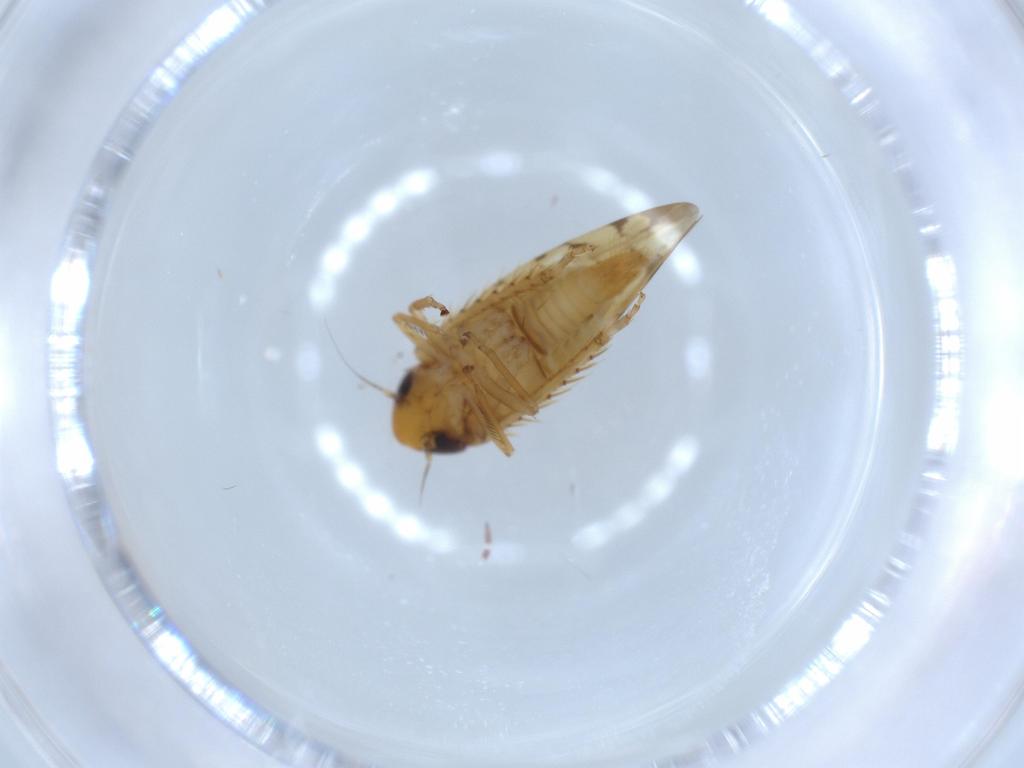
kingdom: Animalia
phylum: Arthropoda
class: Insecta
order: Hemiptera
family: Cicadellidae
